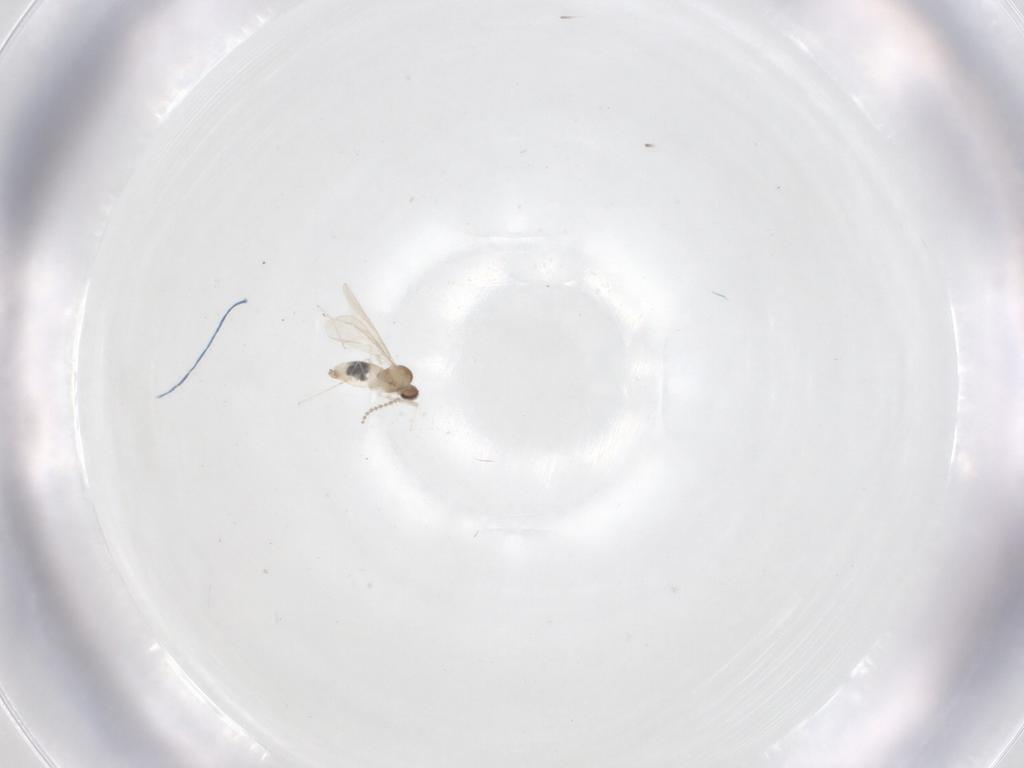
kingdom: Animalia
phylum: Arthropoda
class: Insecta
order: Diptera
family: Cecidomyiidae
